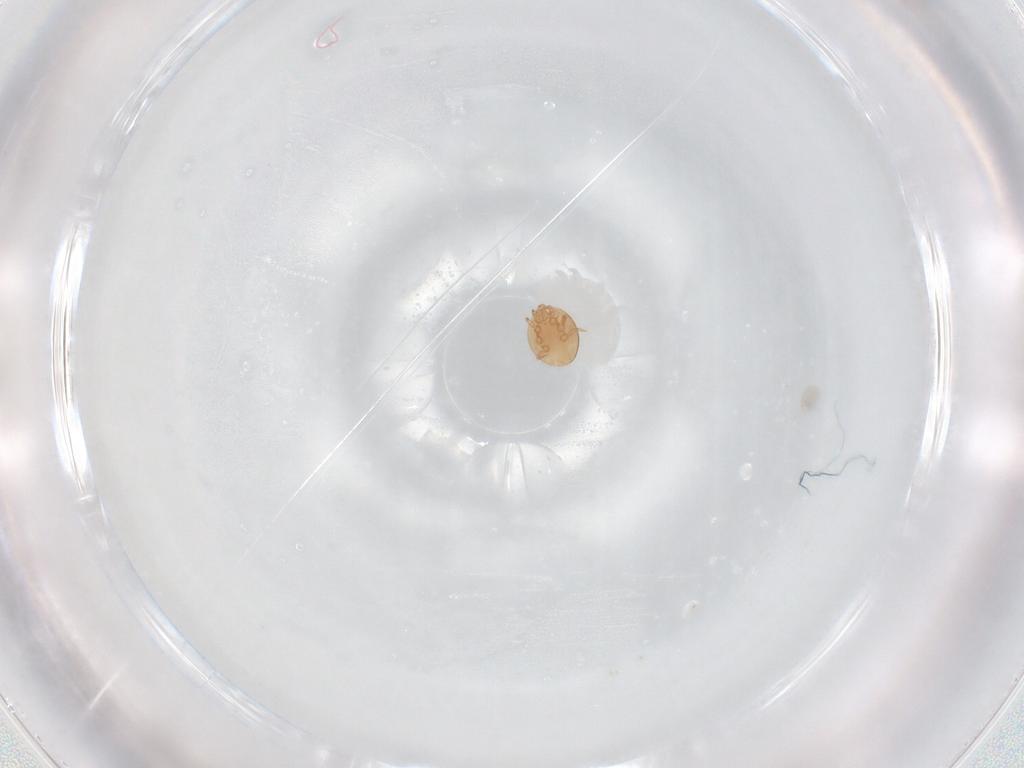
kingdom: Animalia
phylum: Arthropoda
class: Arachnida
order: Mesostigmata
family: Trematuridae
